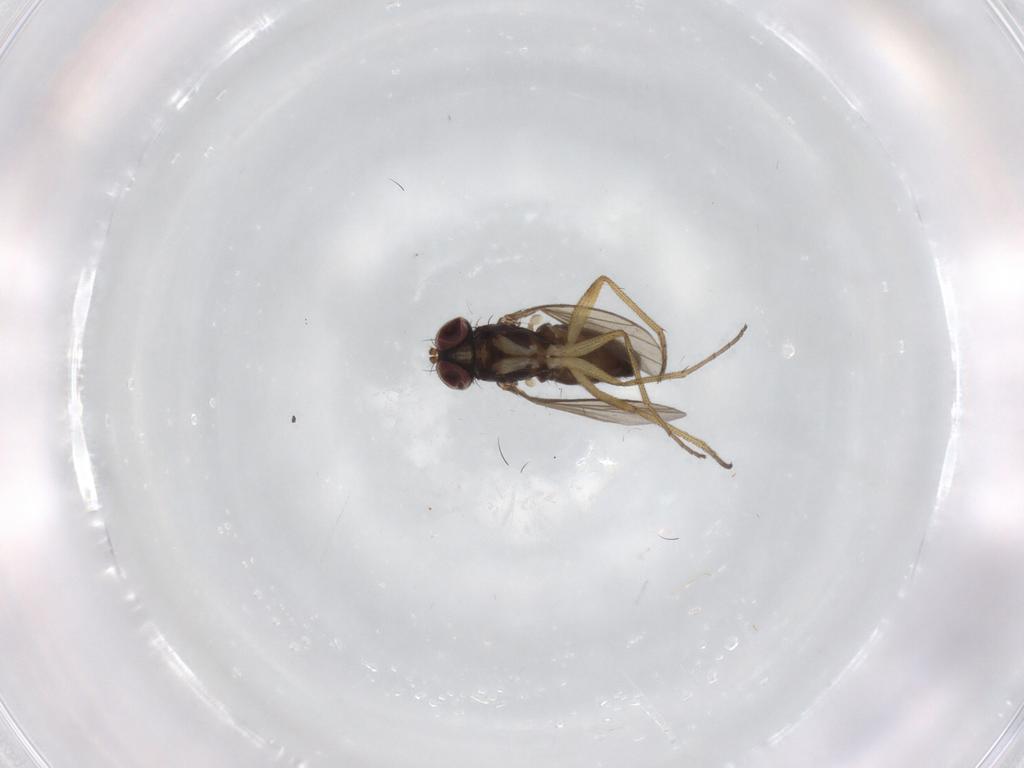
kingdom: Animalia
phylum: Arthropoda
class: Insecta
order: Diptera
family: Dolichopodidae
